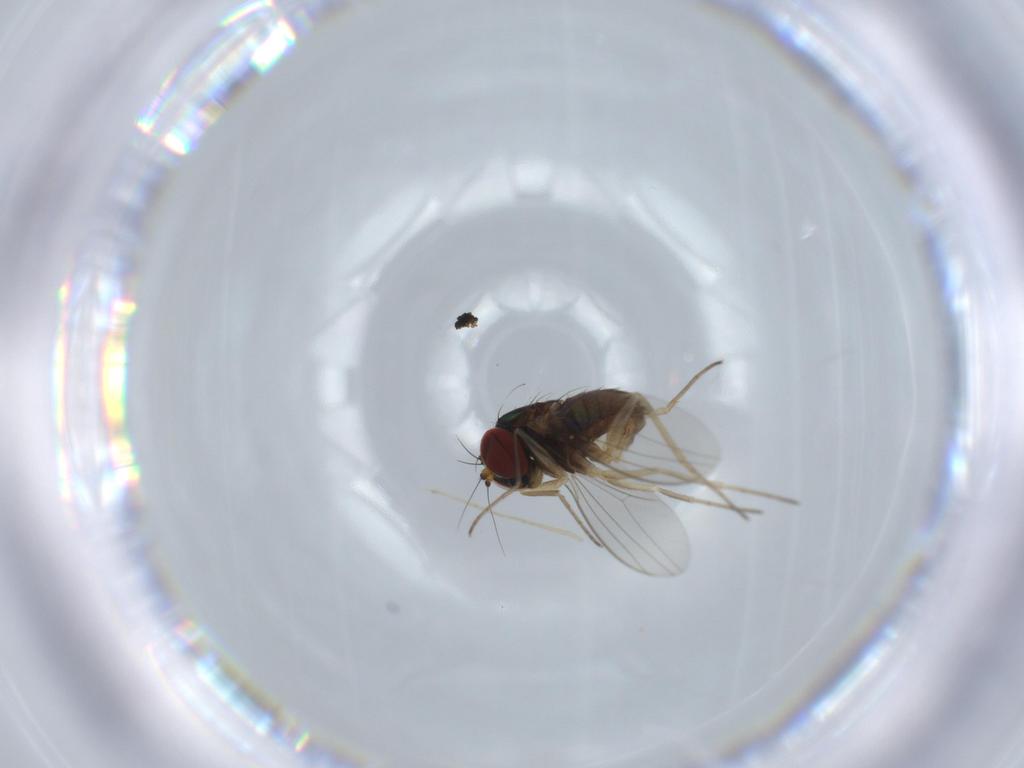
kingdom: Animalia
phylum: Arthropoda
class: Insecta
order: Diptera
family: Dolichopodidae
